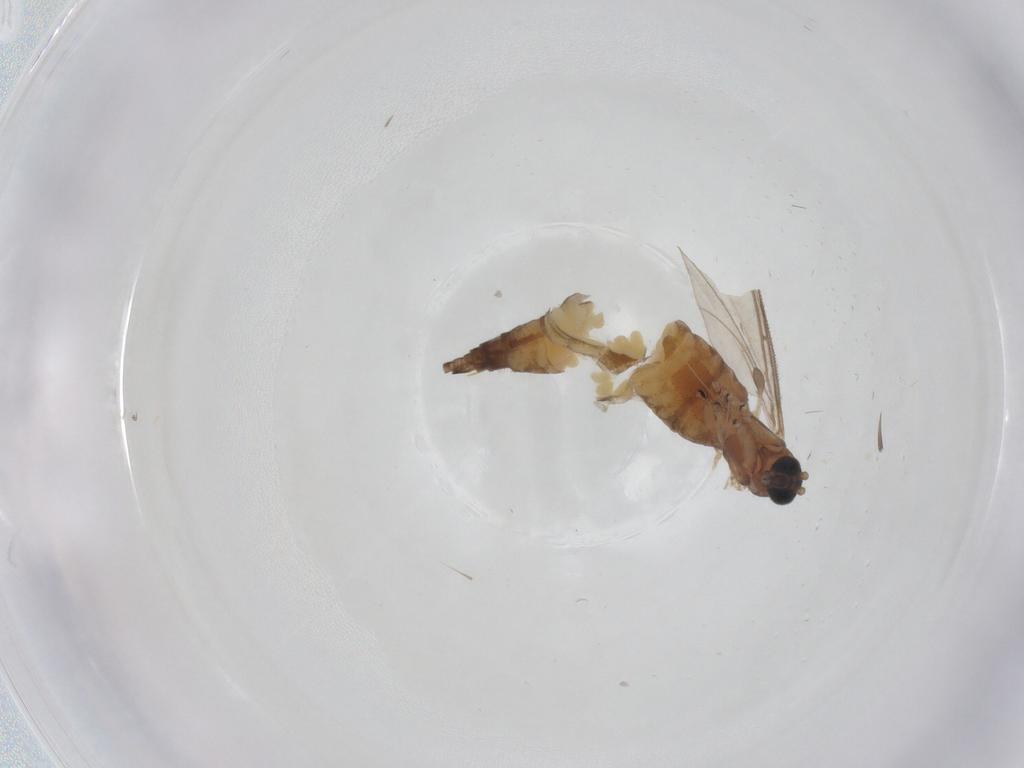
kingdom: Animalia
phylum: Arthropoda
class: Insecta
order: Diptera
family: Sciaridae
